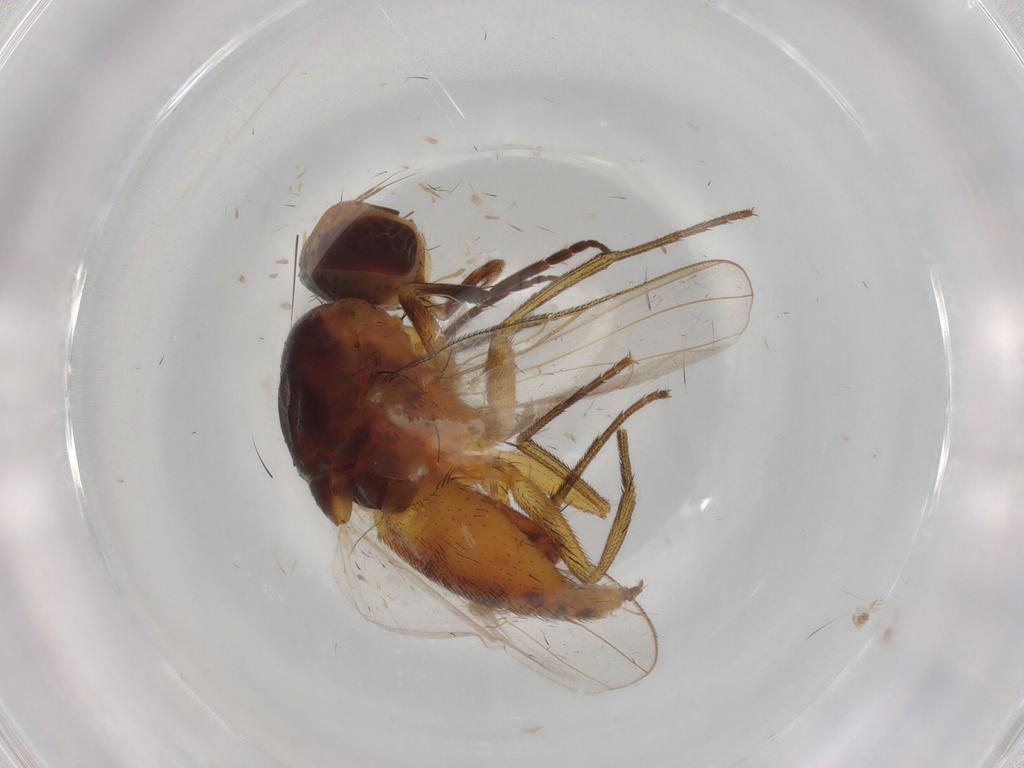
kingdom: Animalia
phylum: Arthropoda
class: Insecta
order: Diptera
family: Muscidae
